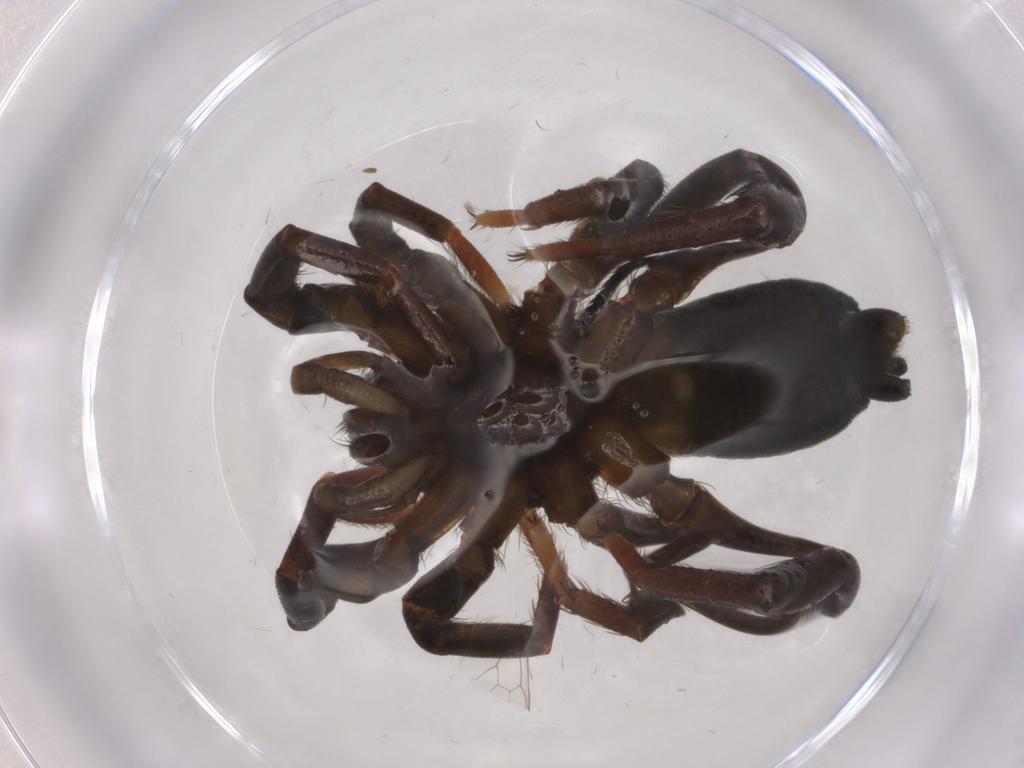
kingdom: Animalia
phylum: Arthropoda
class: Arachnida
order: Araneae
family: Gnaphosidae
